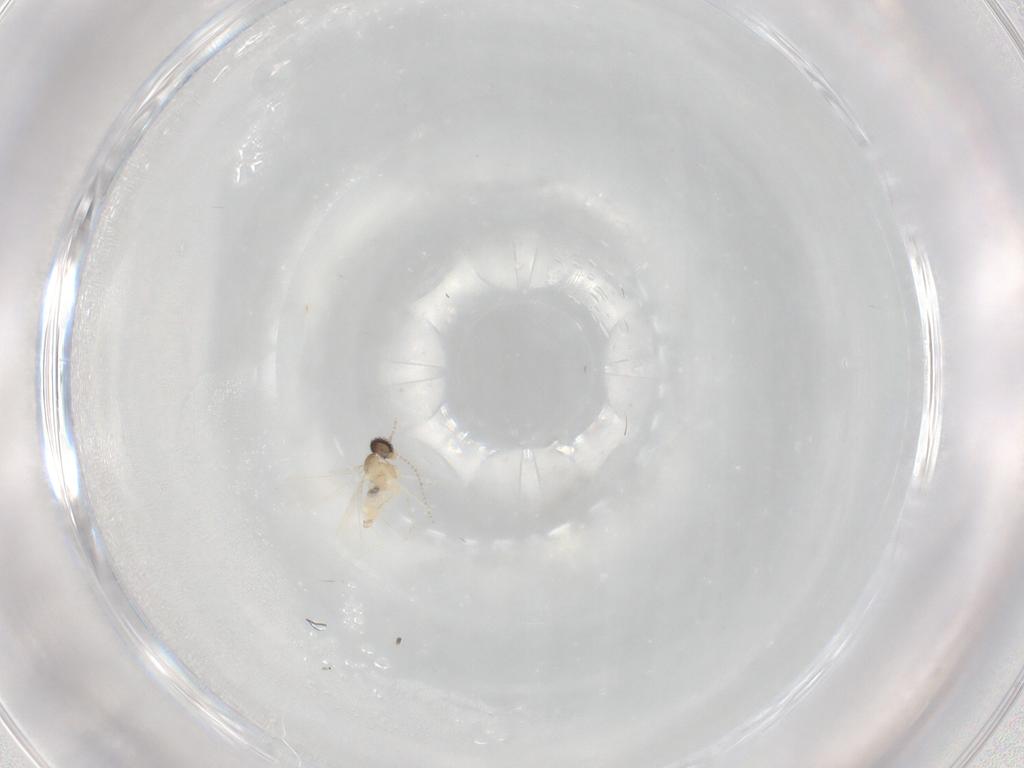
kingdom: Animalia
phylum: Arthropoda
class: Insecta
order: Diptera
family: Cecidomyiidae
